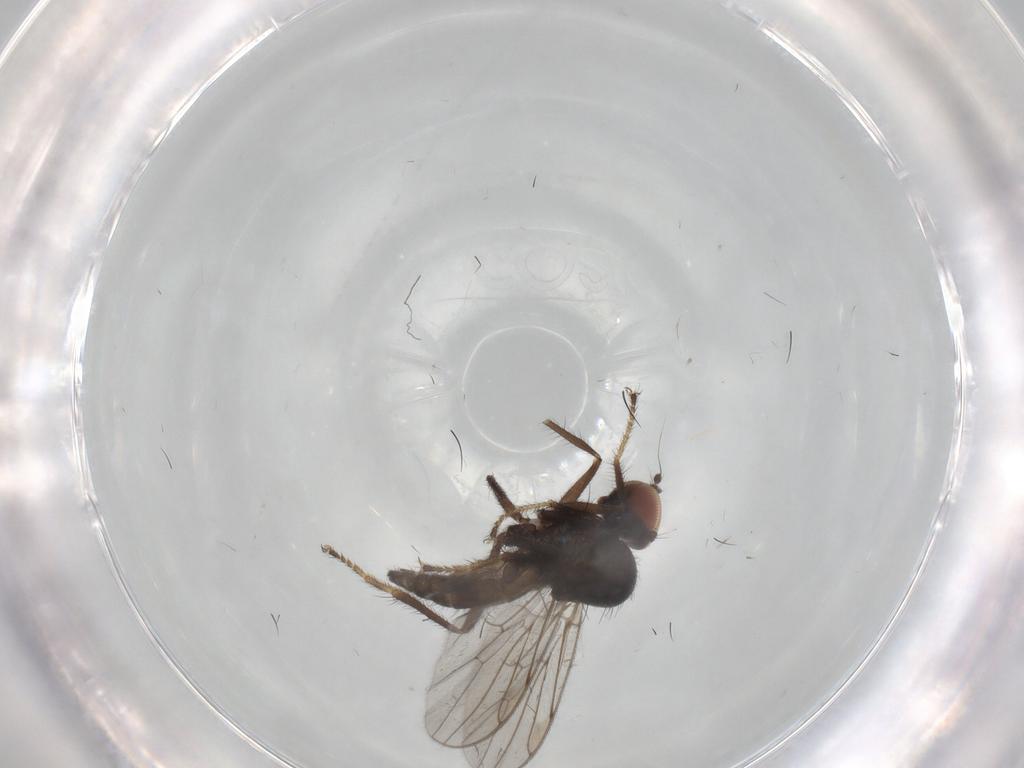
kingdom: Animalia
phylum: Arthropoda
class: Insecta
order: Diptera
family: Hybotidae
